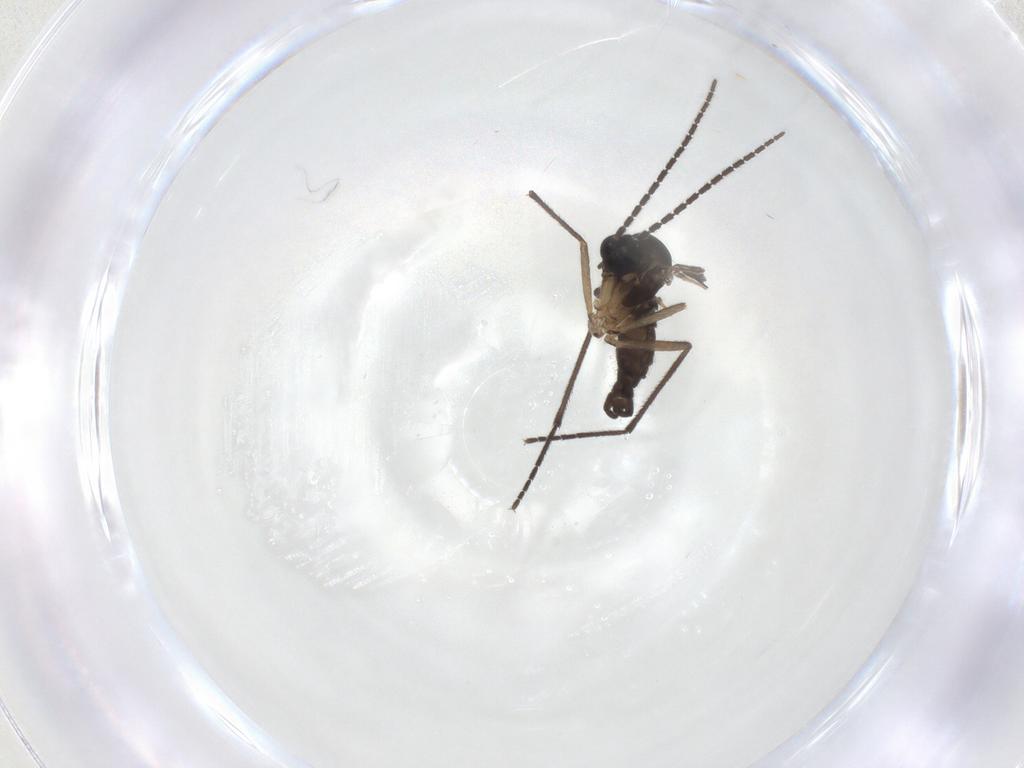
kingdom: Animalia
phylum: Arthropoda
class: Insecta
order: Diptera
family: Sciaridae
